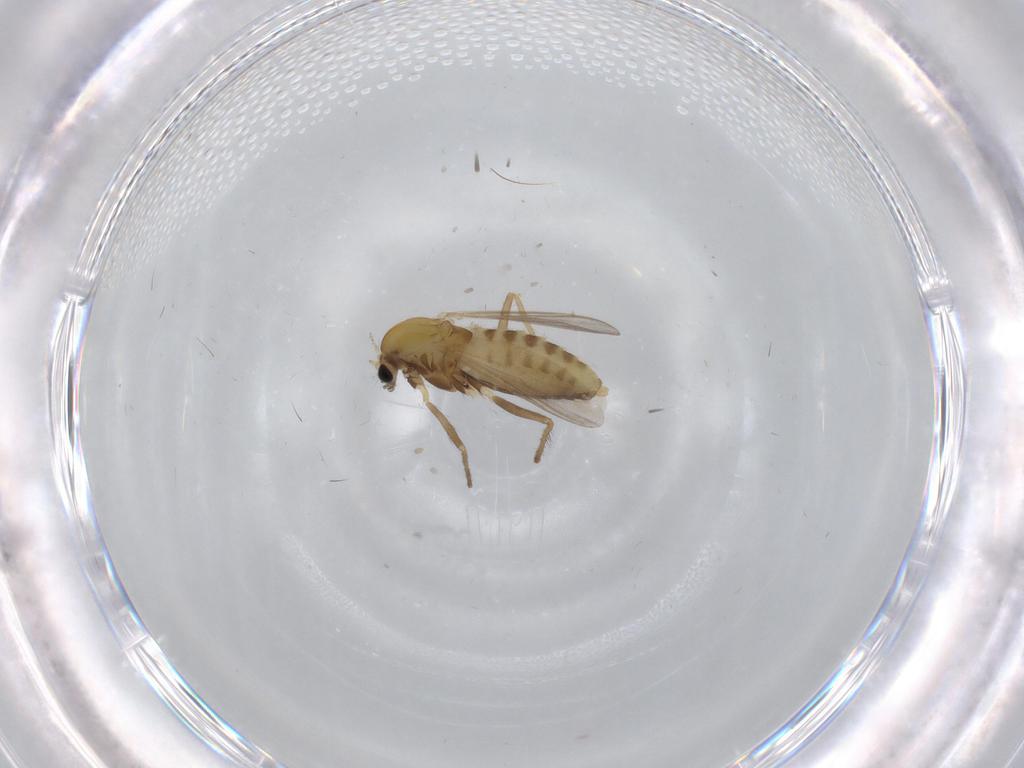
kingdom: Animalia
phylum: Arthropoda
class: Insecta
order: Diptera
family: Chironomidae
